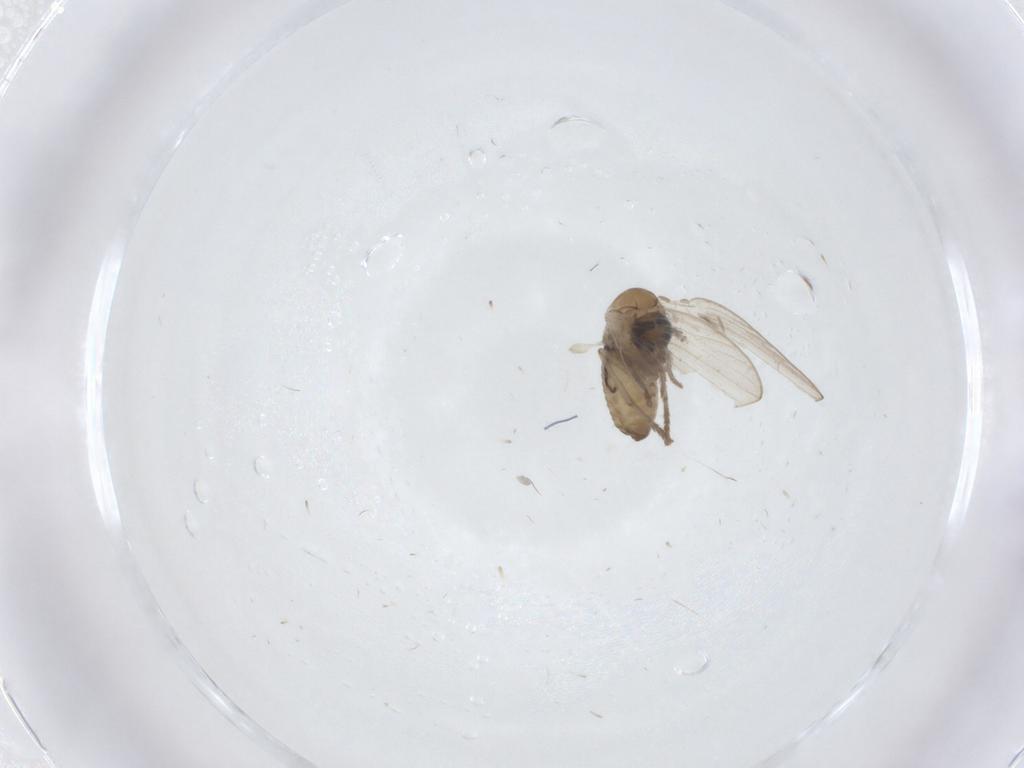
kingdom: Animalia
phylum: Arthropoda
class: Insecta
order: Diptera
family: Psychodidae
